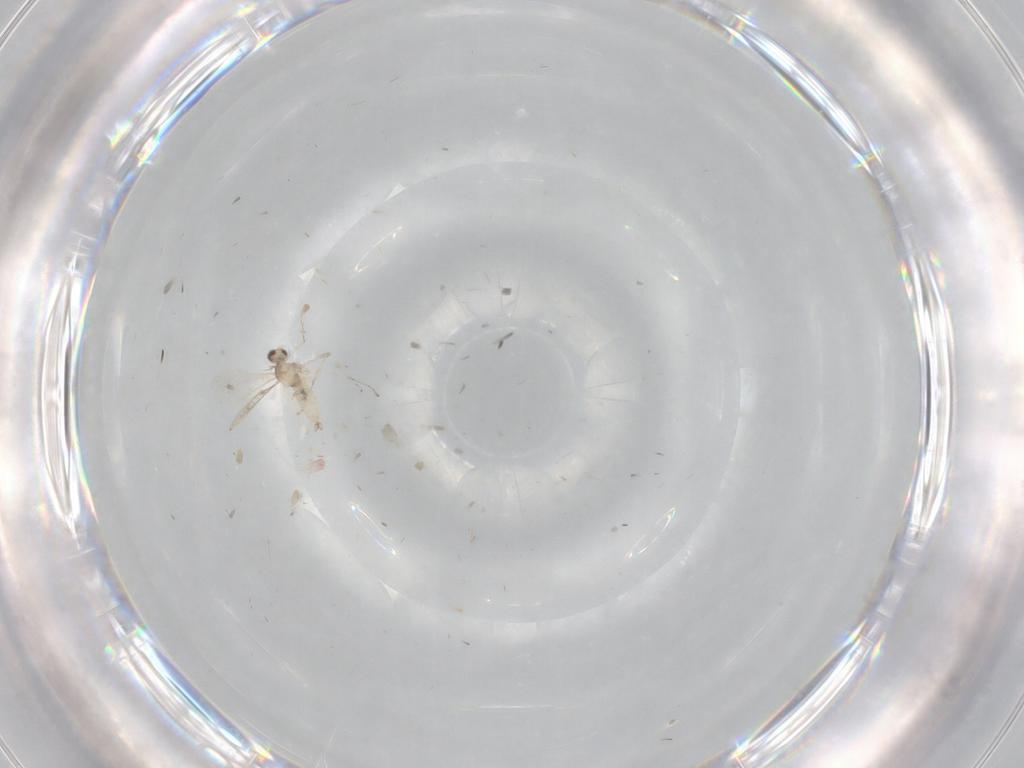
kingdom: Animalia
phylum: Arthropoda
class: Insecta
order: Diptera
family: Cecidomyiidae
